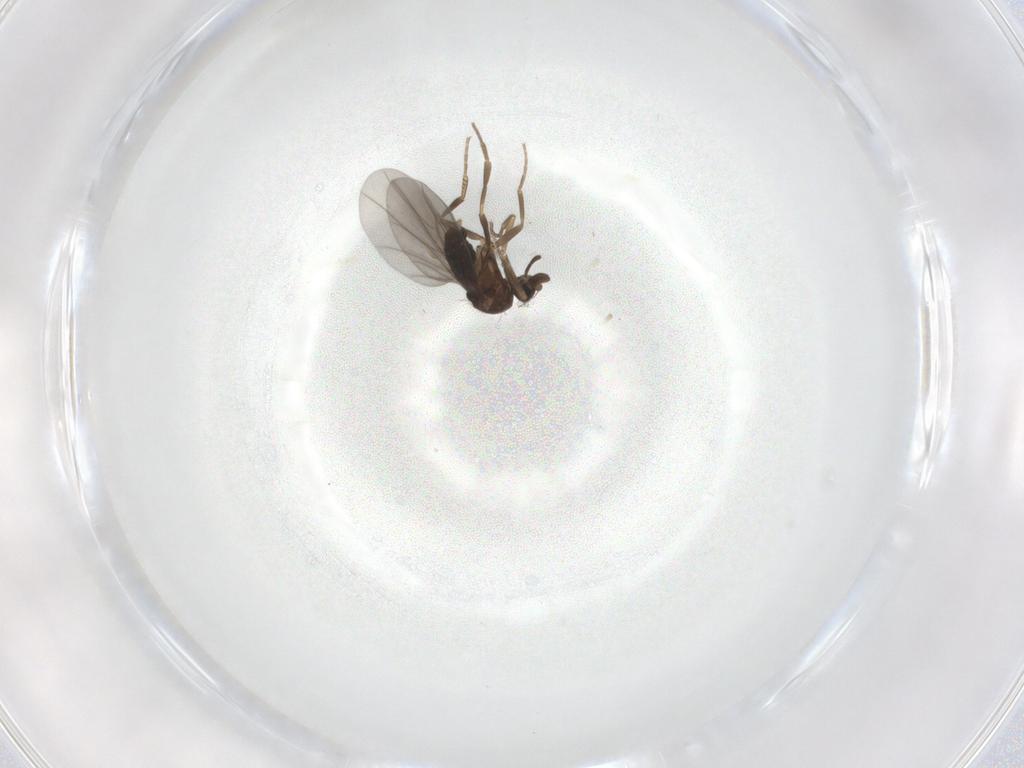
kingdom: Animalia
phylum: Arthropoda
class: Insecta
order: Diptera
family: Phoridae
